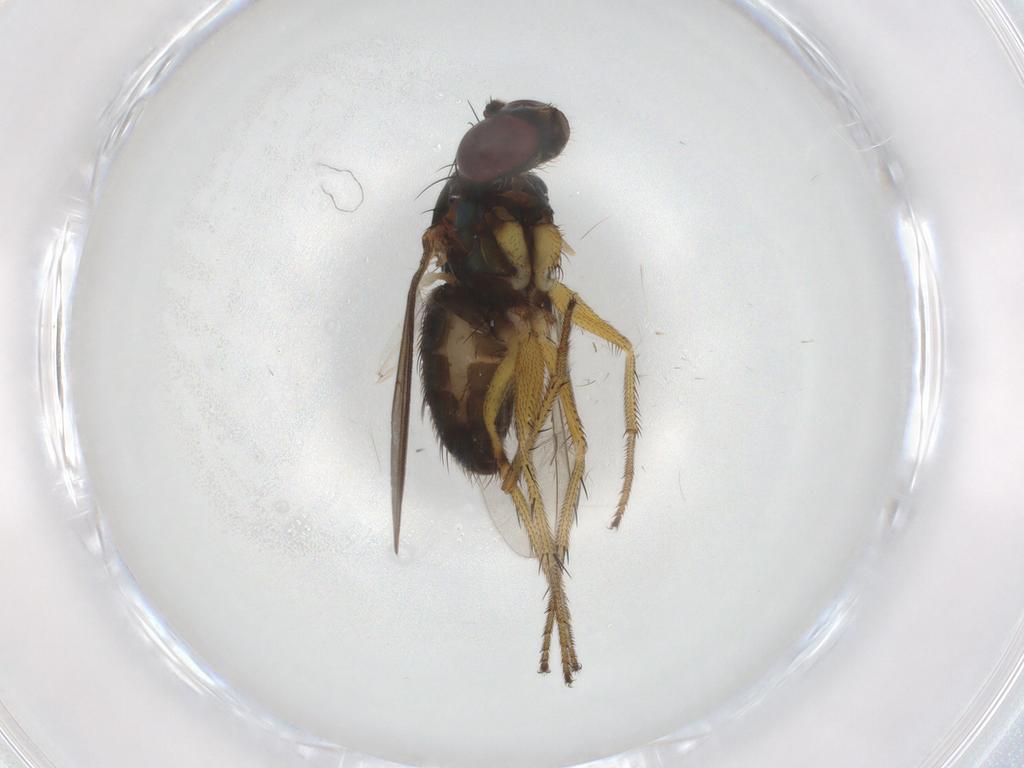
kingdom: Animalia
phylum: Arthropoda
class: Insecta
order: Diptera
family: Dolichopodidae
